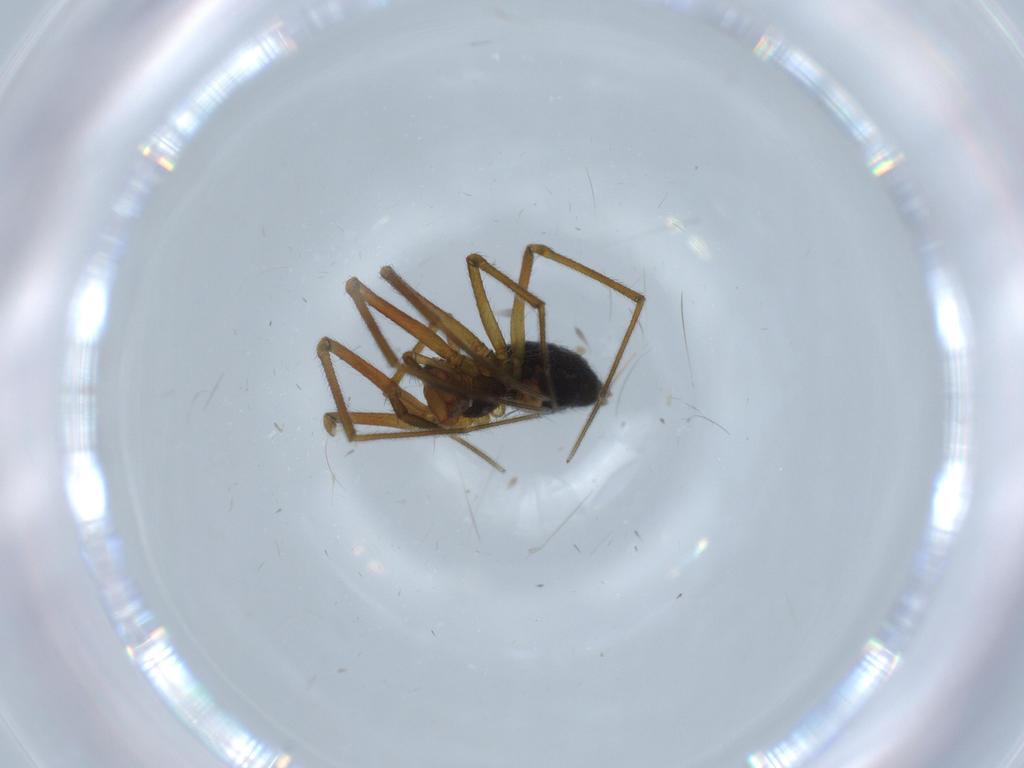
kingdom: Animalia
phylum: Arthropoda
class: Arachnida
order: Araneae
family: Linyphiidae
